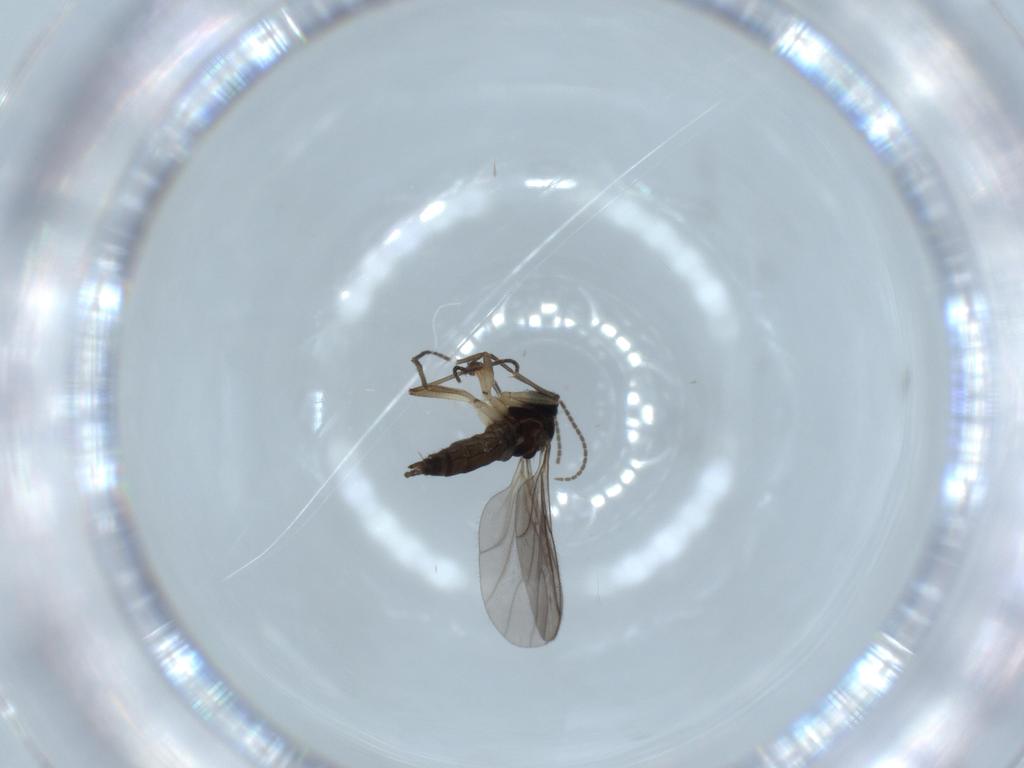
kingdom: Animalia
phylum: Arthropoda
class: Insecta
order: Diptera
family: Sciaridae
